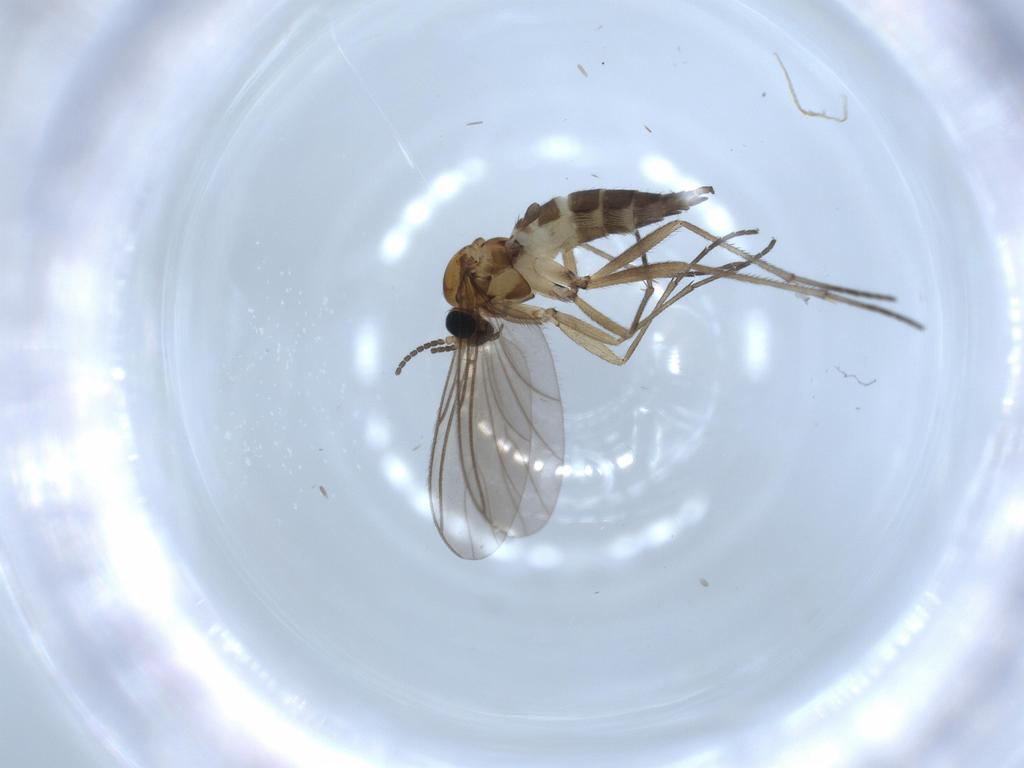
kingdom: Animalia
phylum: Arthropoda
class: Insecta
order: Diptera
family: Sciaridae
